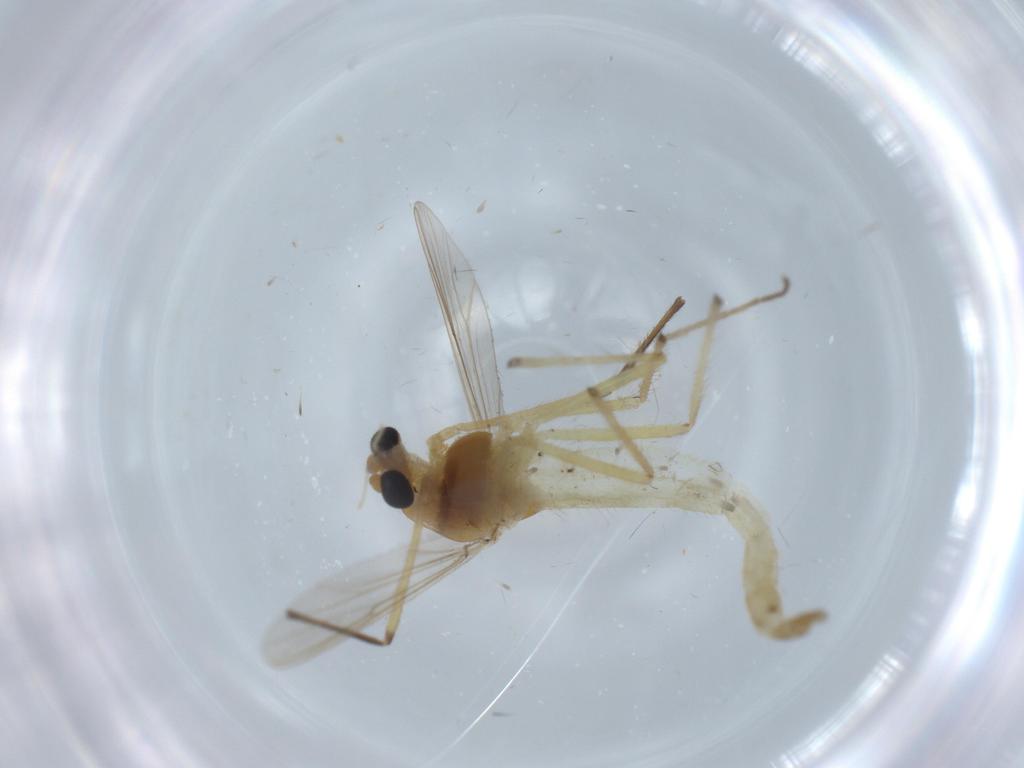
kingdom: Animalia
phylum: Arthropoda
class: Insecta
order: Diptera
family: Chironomidae
